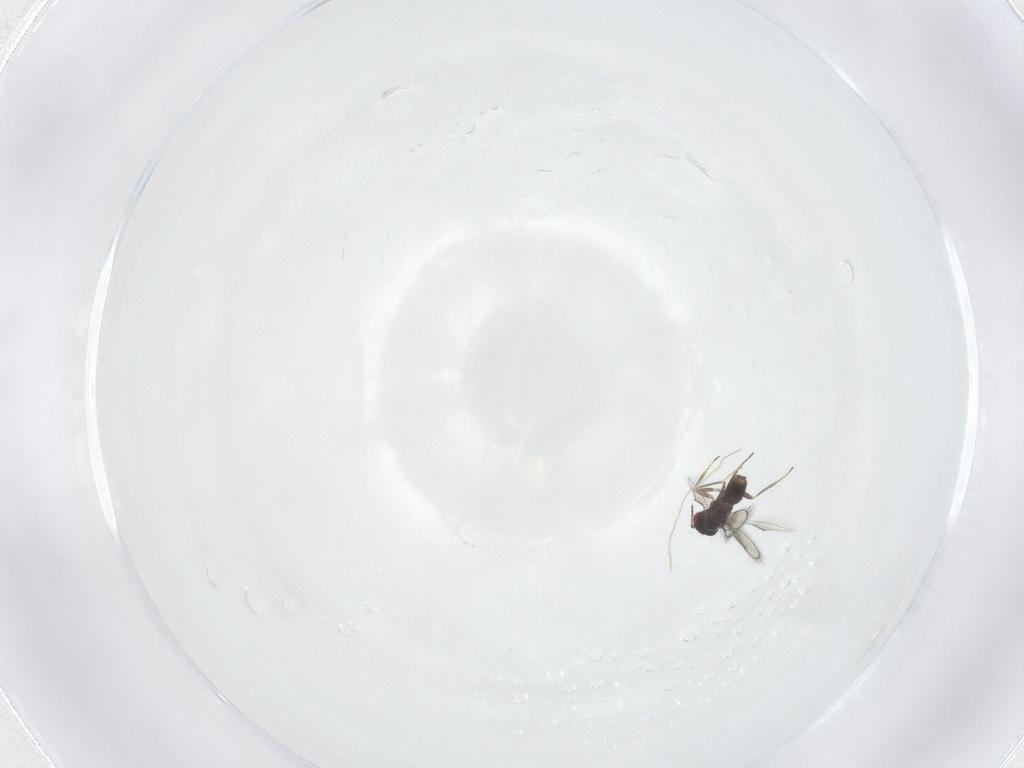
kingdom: Animalia
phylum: Arthropoda
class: Insecta
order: Hymenoptera
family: Eulophidae
